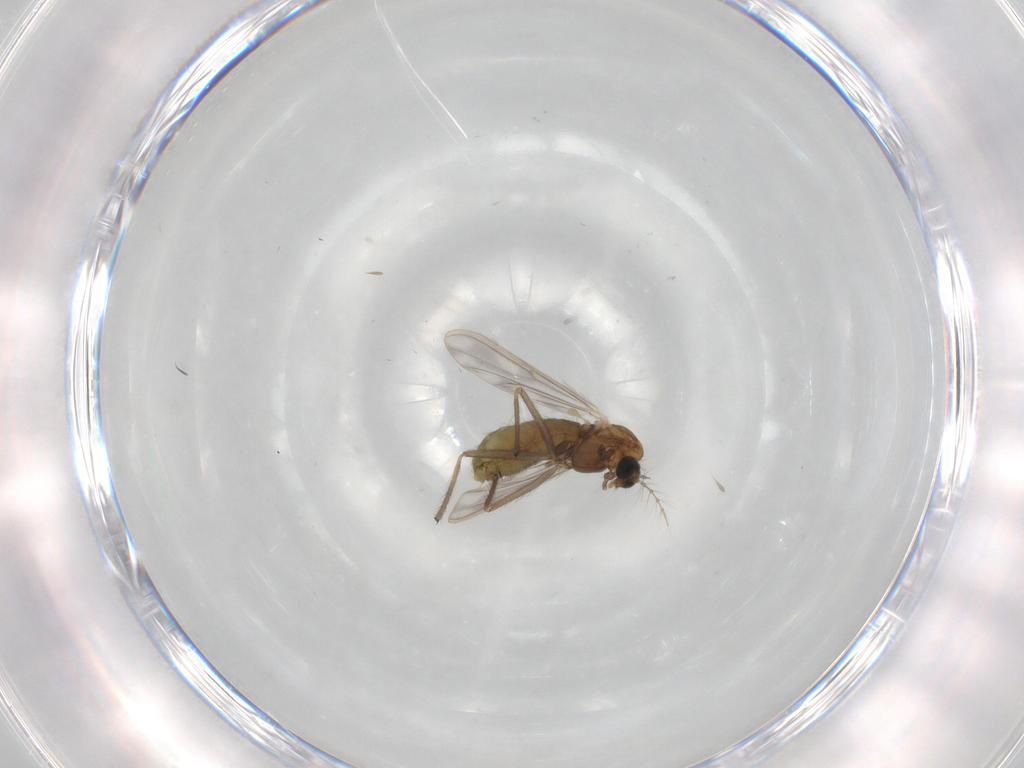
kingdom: Animalia
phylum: Arthropoda
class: Insecta
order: Diptera
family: Chironomidae
